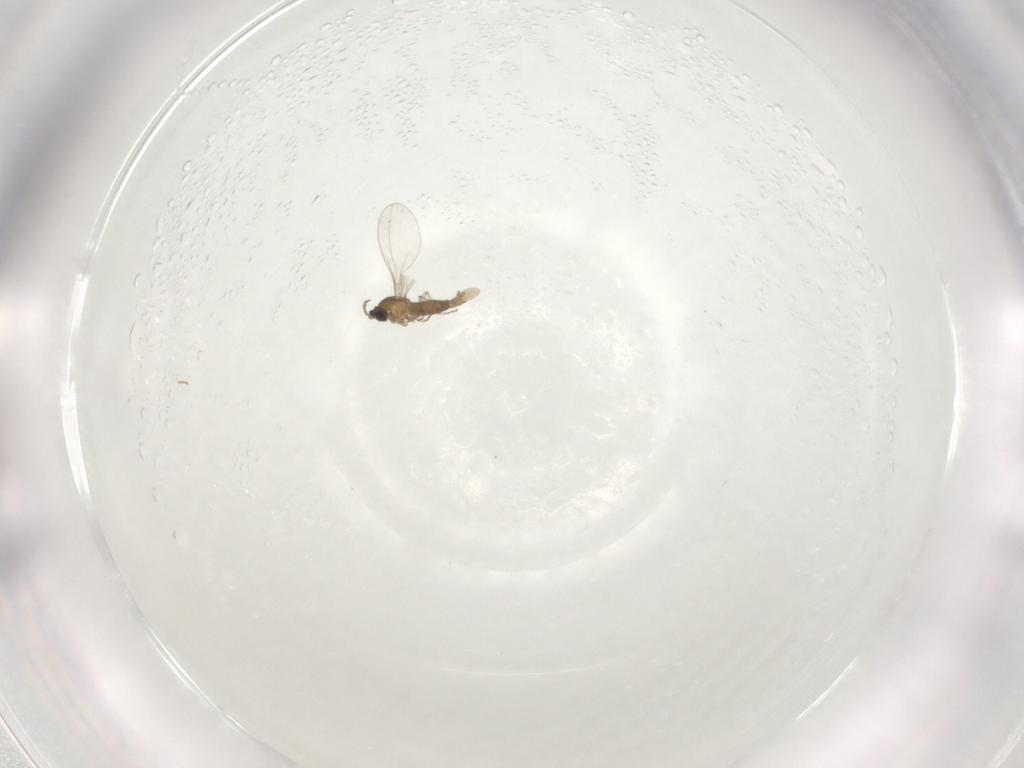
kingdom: Animalia
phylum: Arthropoda
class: Insecta
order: Diptera
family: Cecidomyiidae
